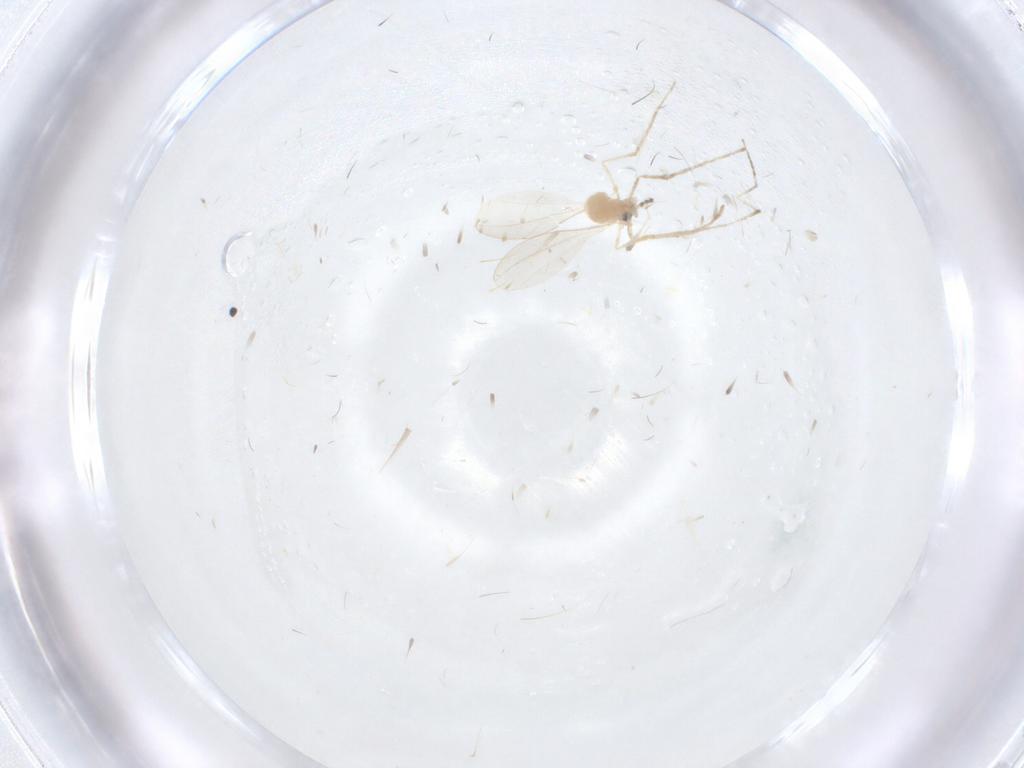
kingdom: Animalia
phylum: Arthropoda
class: Insecta
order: Diptera
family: Cecidomyiidae
